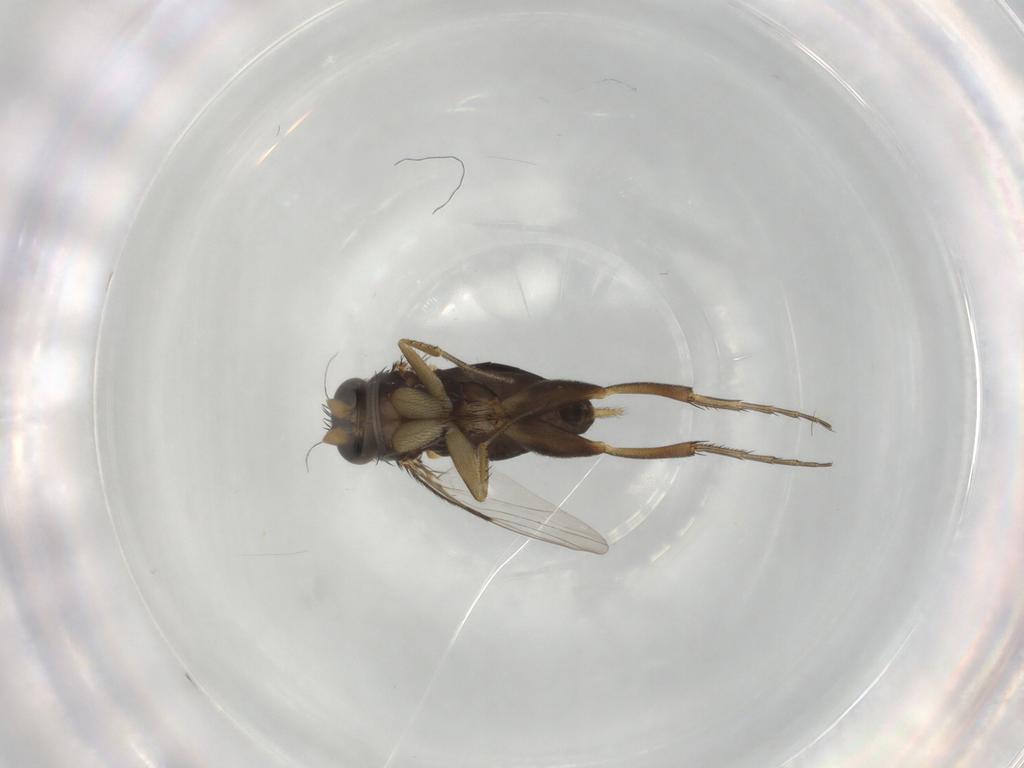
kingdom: Animalia
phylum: Arthropoda
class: Insecta
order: Diptera
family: Phoridae
